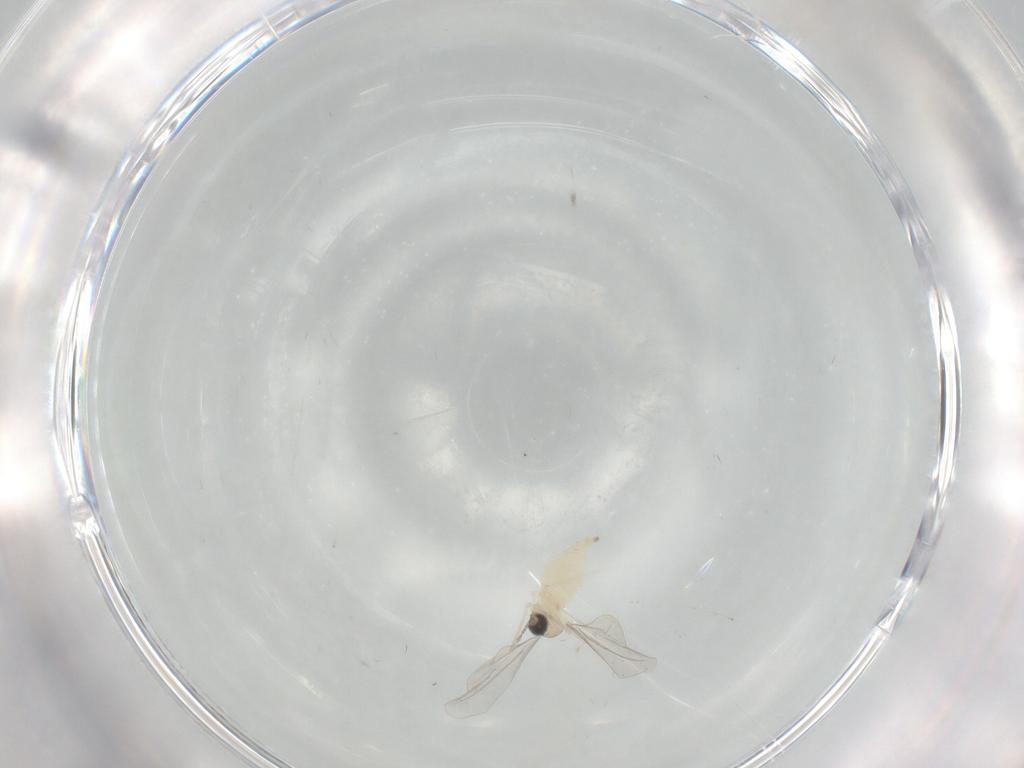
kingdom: Animalia
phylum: Arthropoda
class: Insecta
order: Diptera
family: Cecidomyiidae
